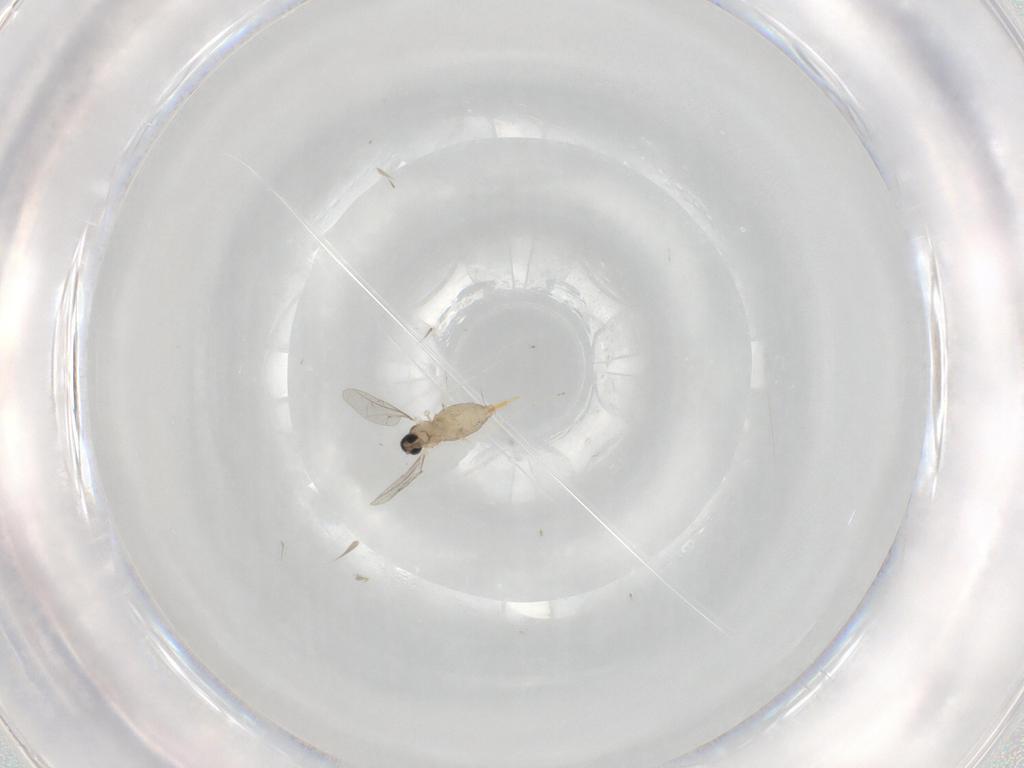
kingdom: Animalia
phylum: Arthropoda
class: Insecta
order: Diptera
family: Cecidomyiidae
